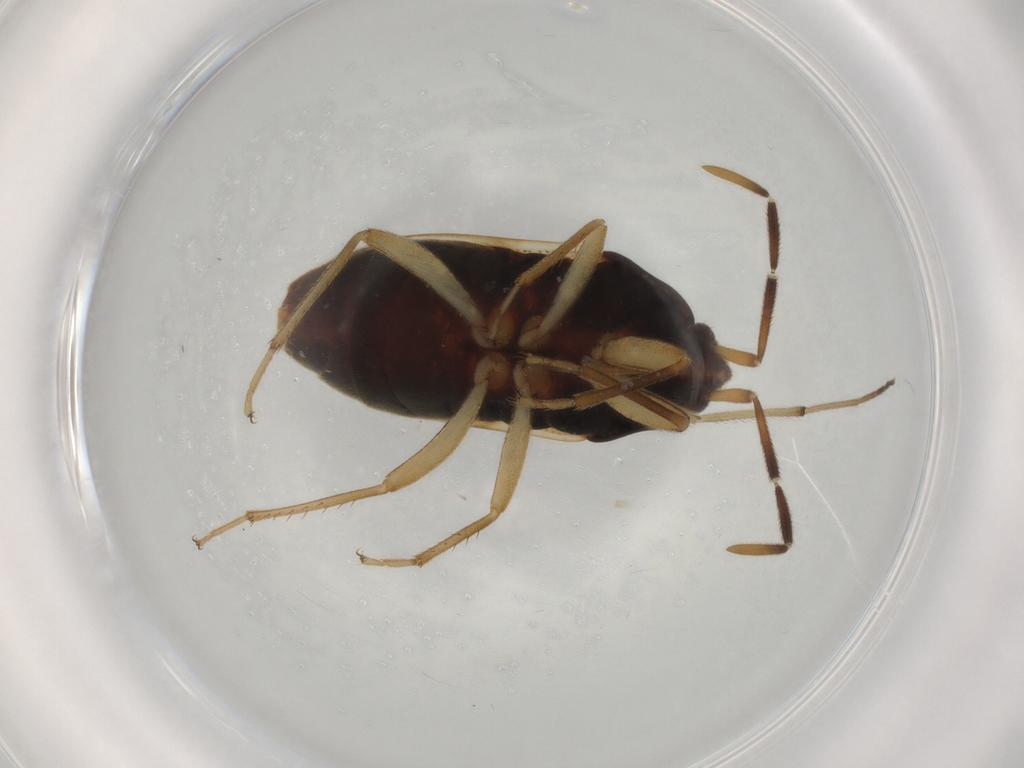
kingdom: Animalia
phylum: Arthropoda
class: Insecta
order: Hemiptera
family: Rhyparochromidae
